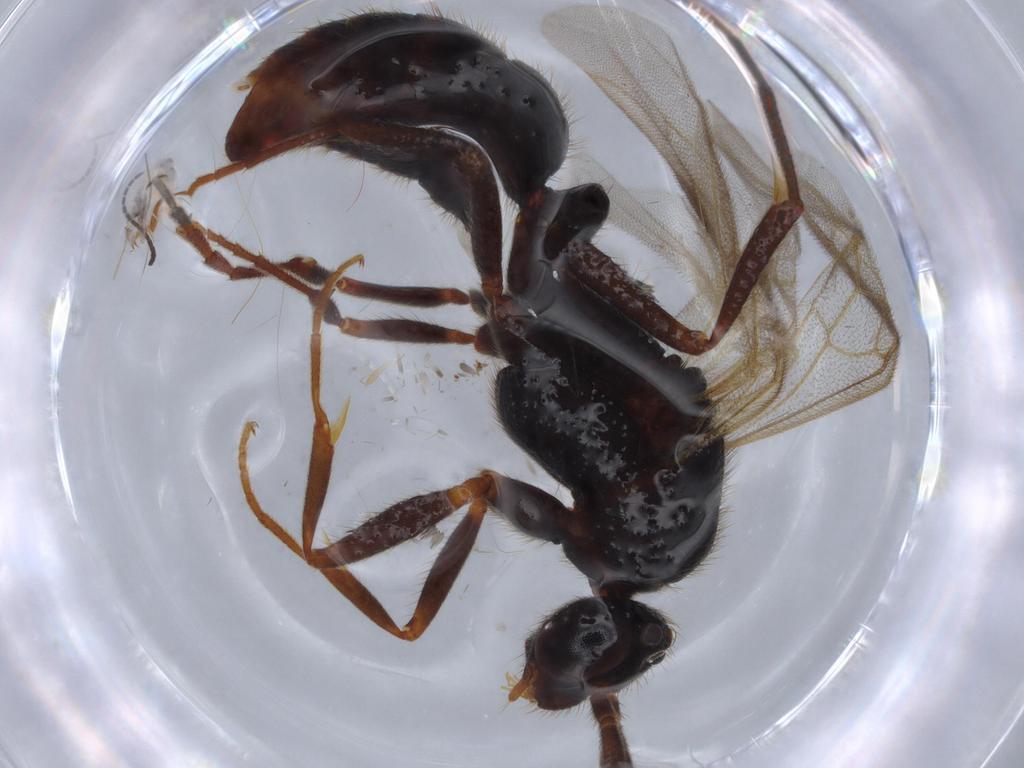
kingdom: Animalia
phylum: Arthropoda
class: Insecta
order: Hymenoptera
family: Formicidae
